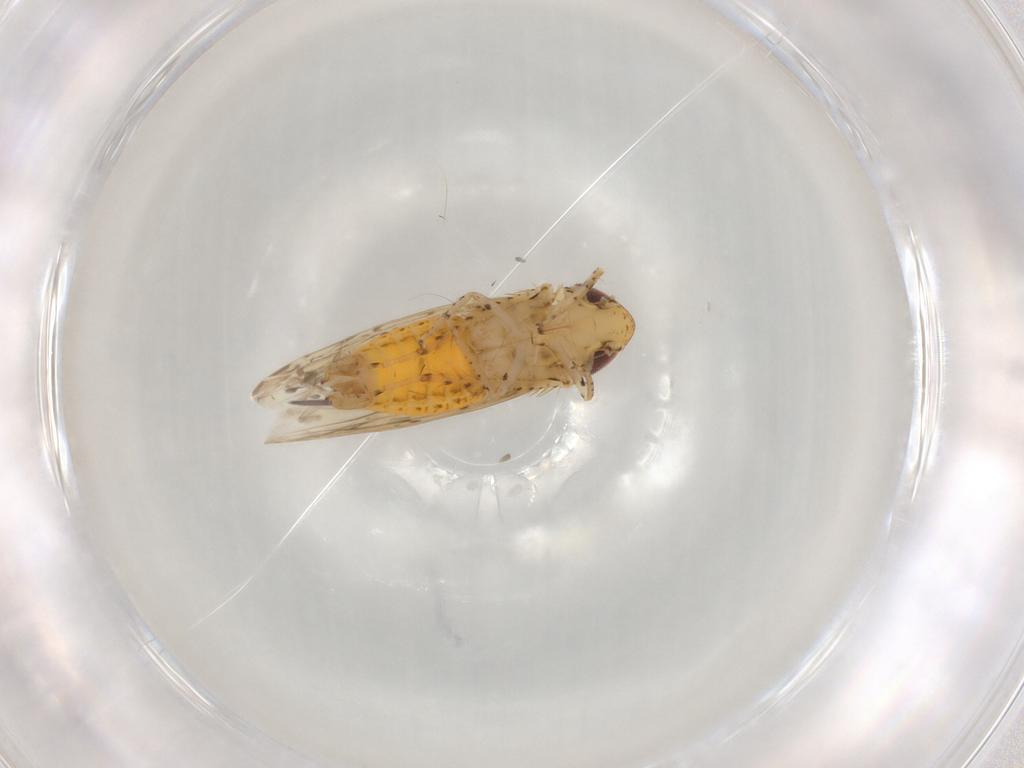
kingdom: Animalia
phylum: Arthropoda
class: Insecta
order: Hemiptera
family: Cicadellidae
